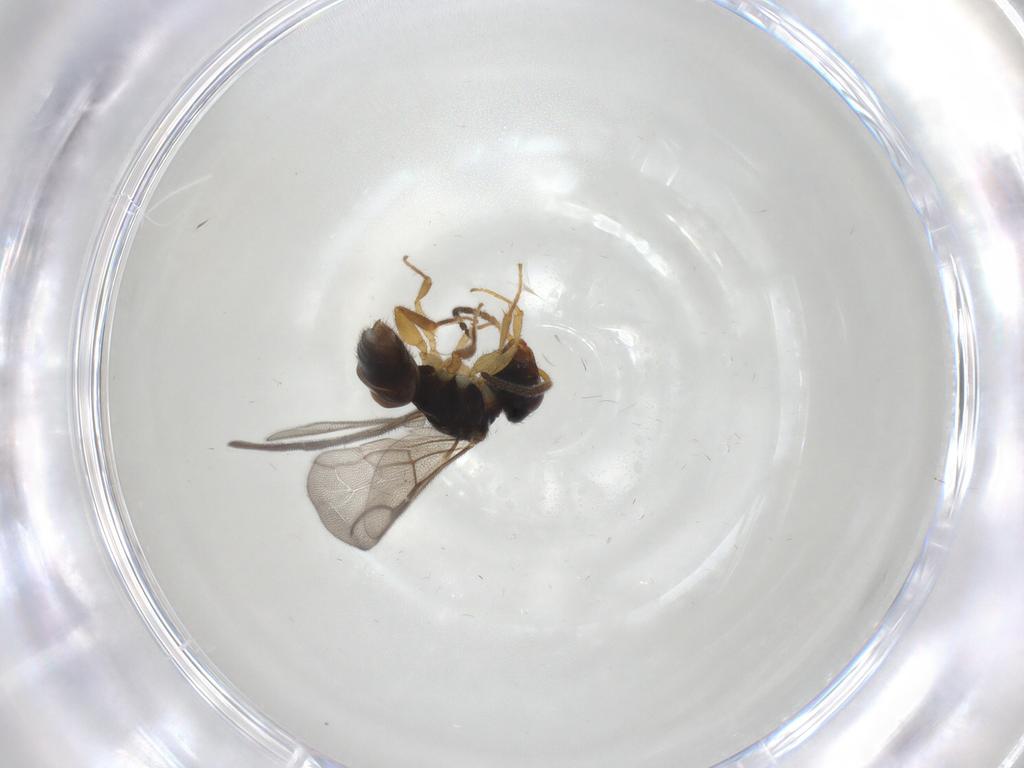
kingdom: Animalia
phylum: Arthropoda
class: Insecta
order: Hymenoptera
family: Bethylidae
